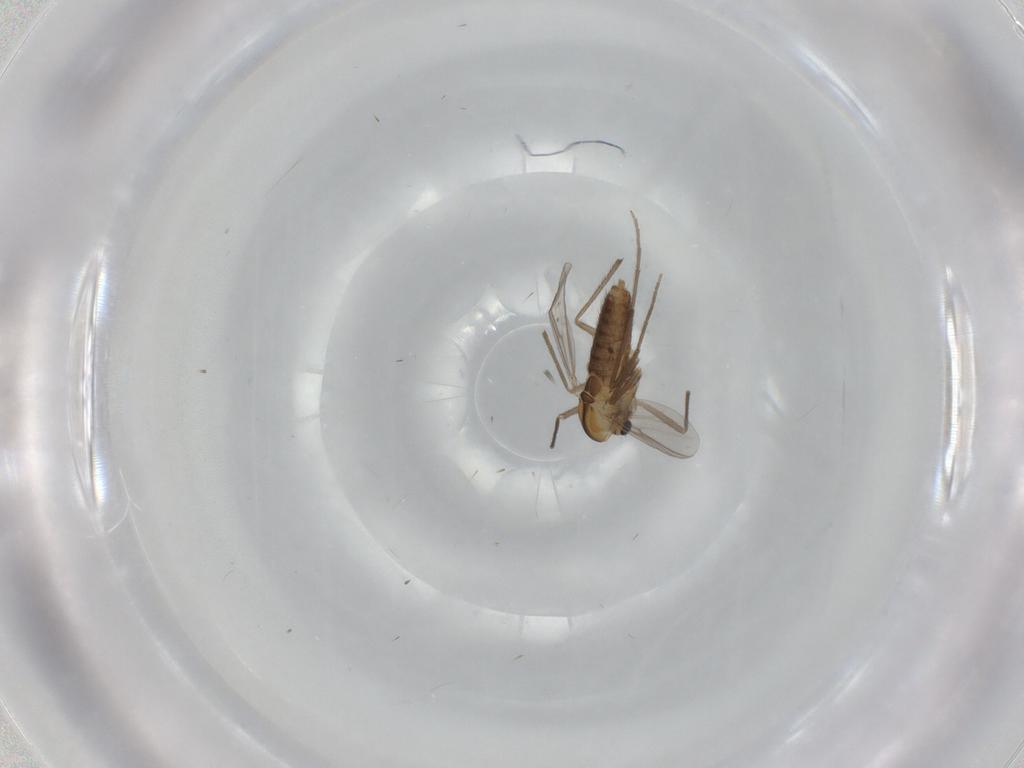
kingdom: Animalia
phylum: Arthropoda
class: Insecta
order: Diptera
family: Chironomidae
